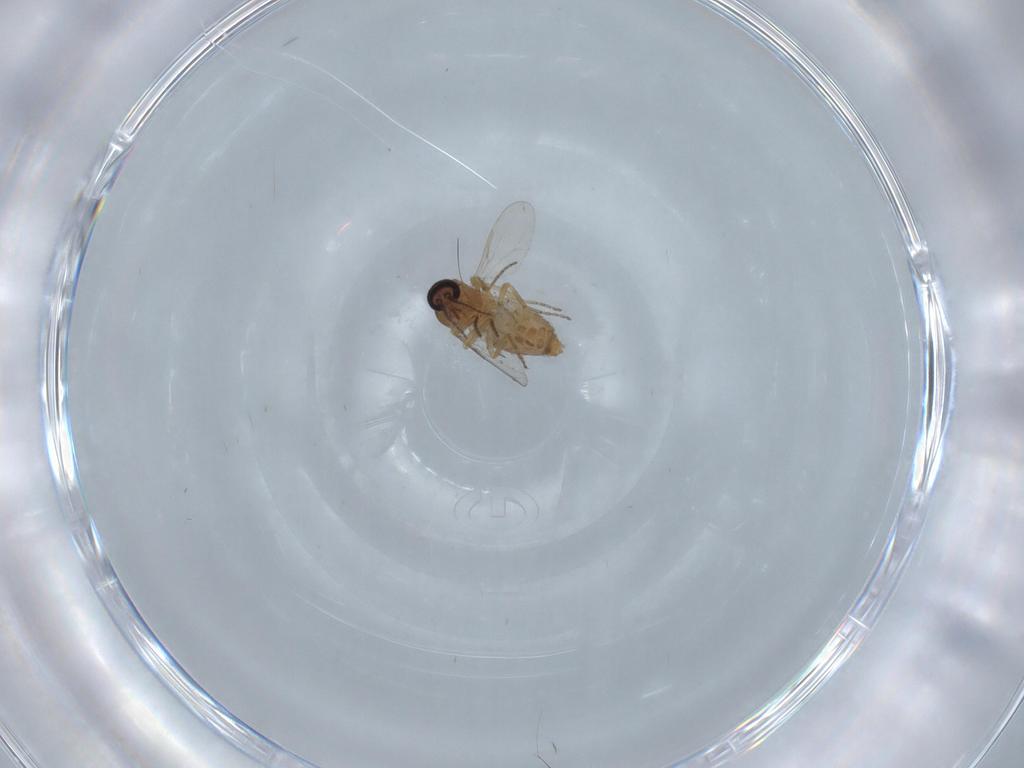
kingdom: Animalia
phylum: Arthropoda
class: Insecta
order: Diptera
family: Ceratopogonidae
